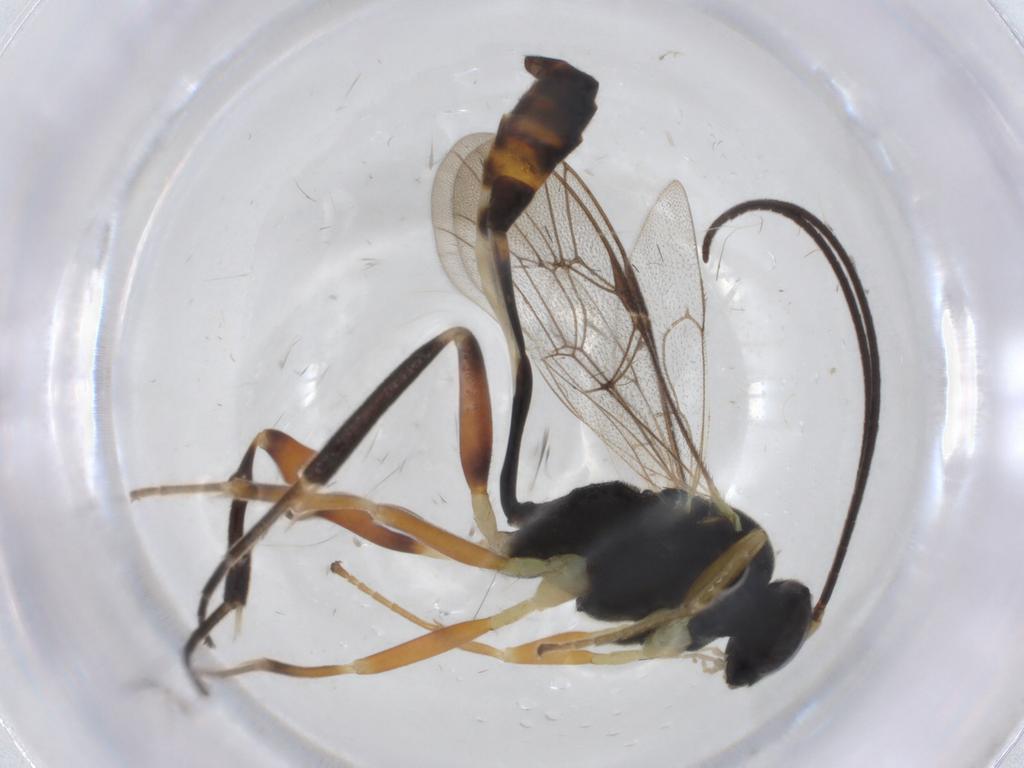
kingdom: Animalia
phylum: Arthropoda
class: Insecta
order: Hymenoptera
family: Ichneumonidae
